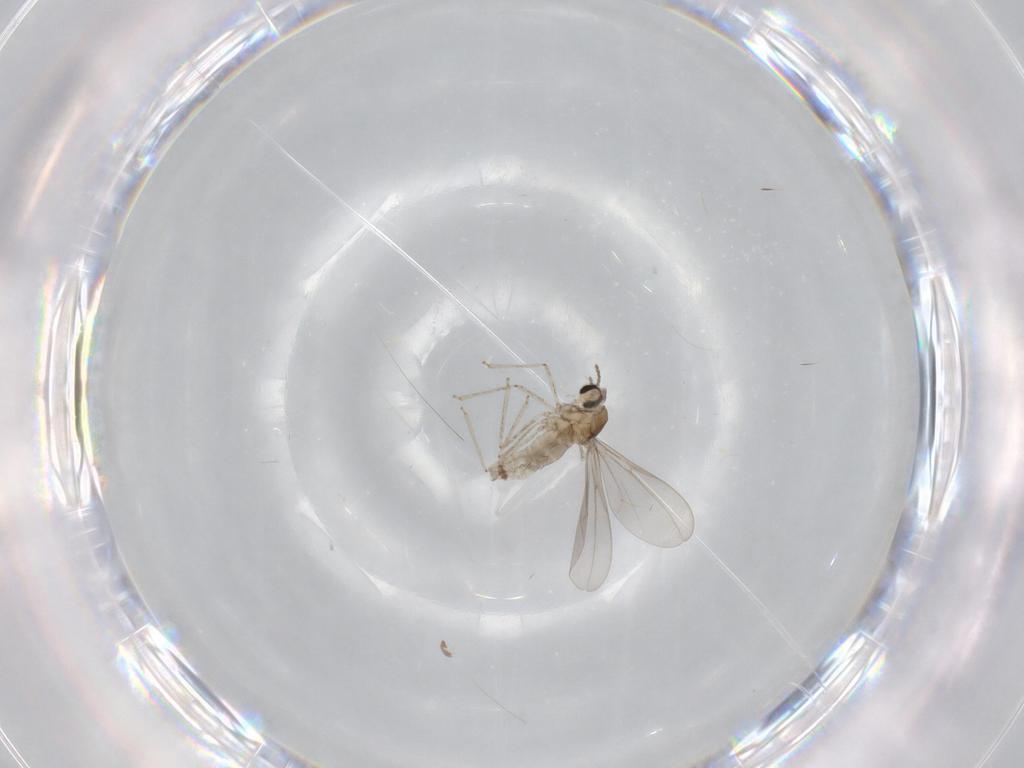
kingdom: Animalia
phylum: Arthropoda
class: Insecta
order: Diptera
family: Cecidomyiidae
